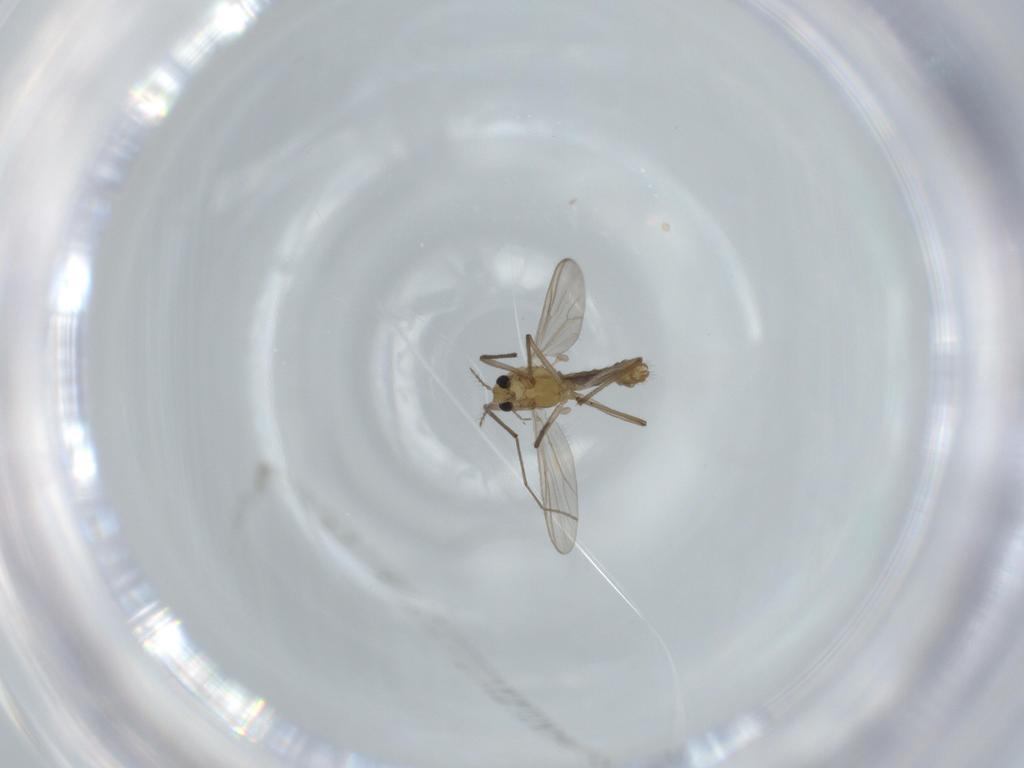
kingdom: Animalia
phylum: Arthropoda
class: Insecta
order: Diptera
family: Chironomidae
